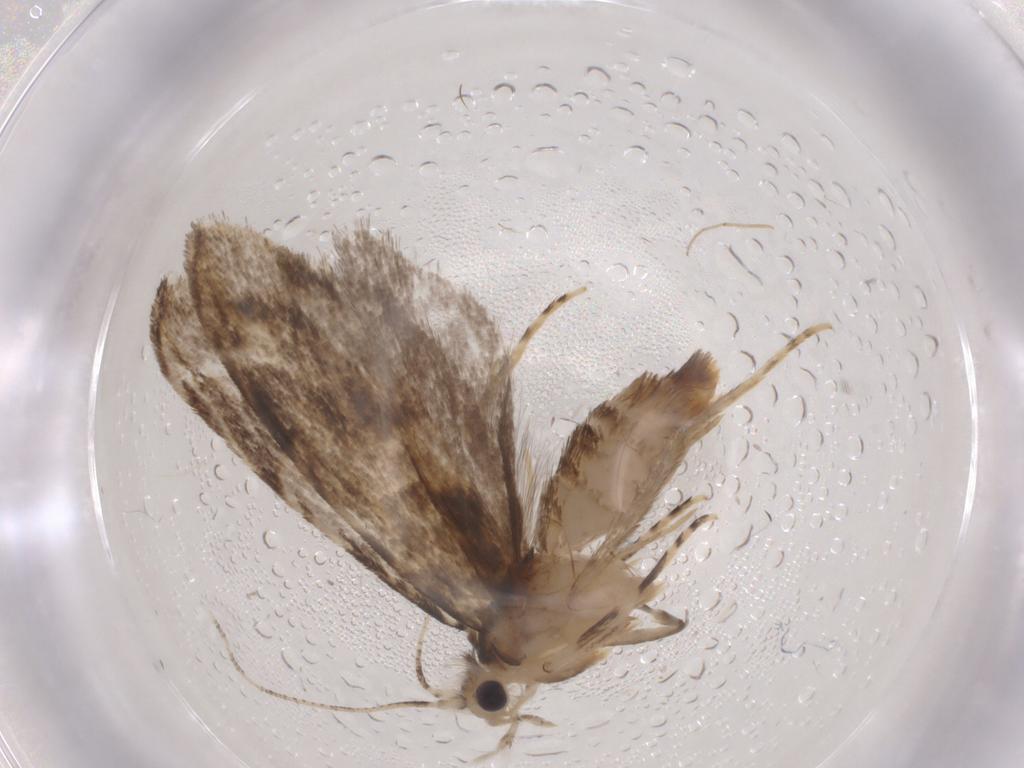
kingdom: Animalia
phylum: Arthropoda
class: Insecta
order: Lepidoptera
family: Tineidae
